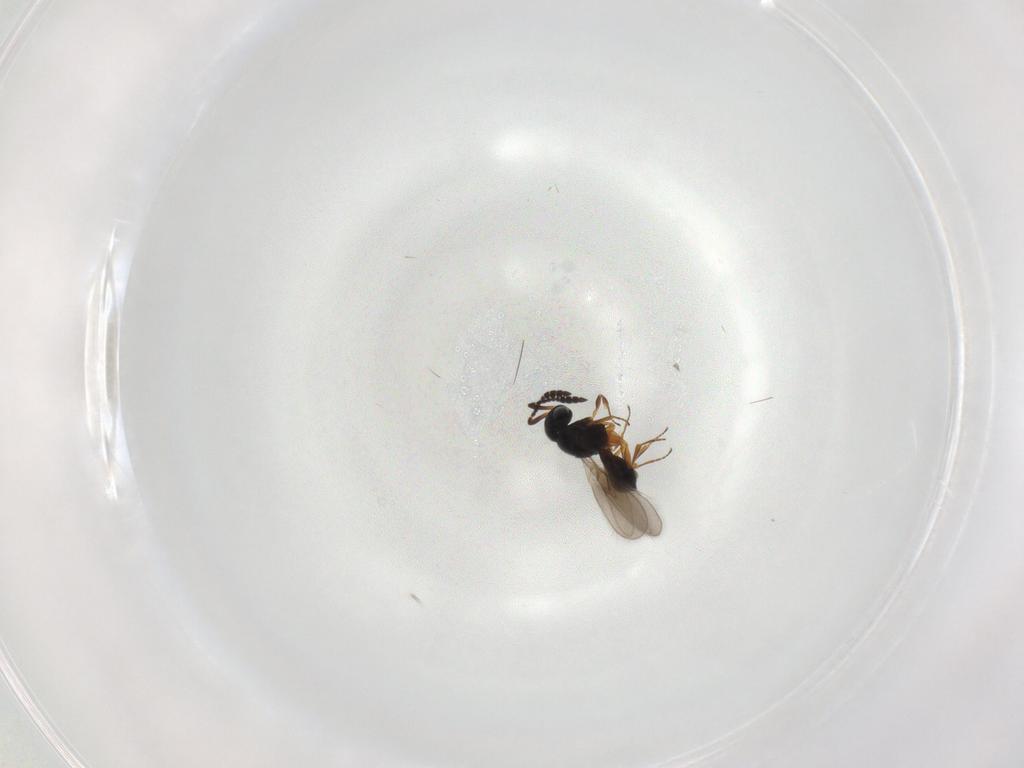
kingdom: Animalia
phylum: Arthropoda
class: Insecta
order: Hymenoptera
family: Scelionidae
